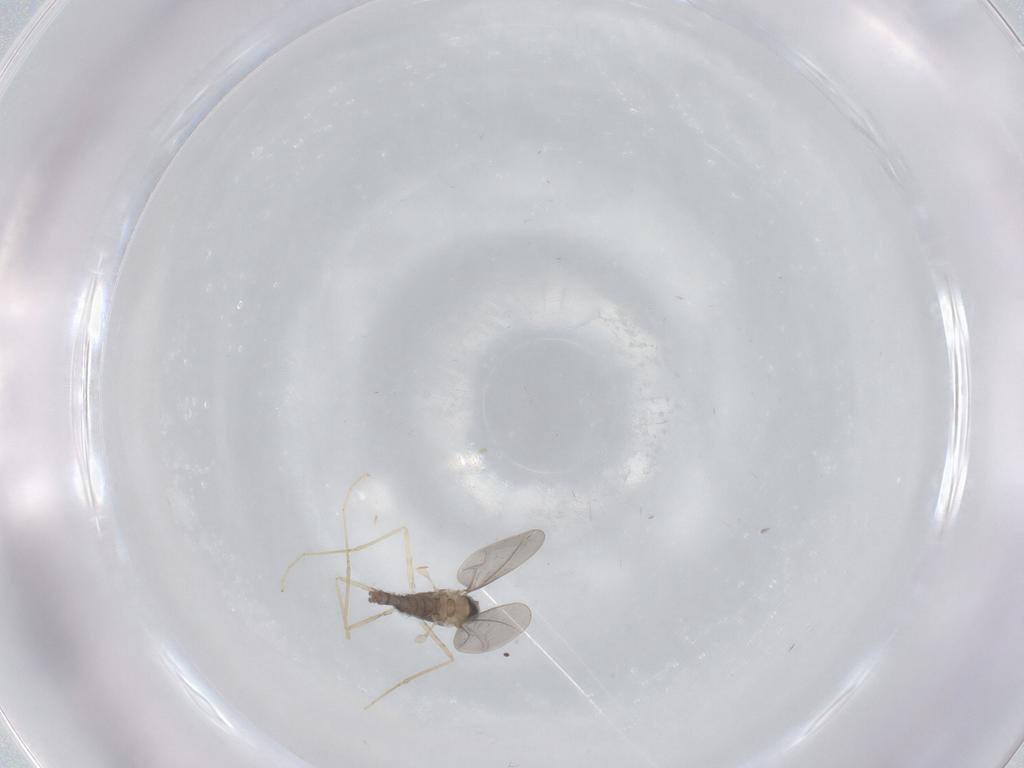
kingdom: Animalia
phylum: Arthropoda
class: Insecta
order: Diptera
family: Cecidomyiidae
